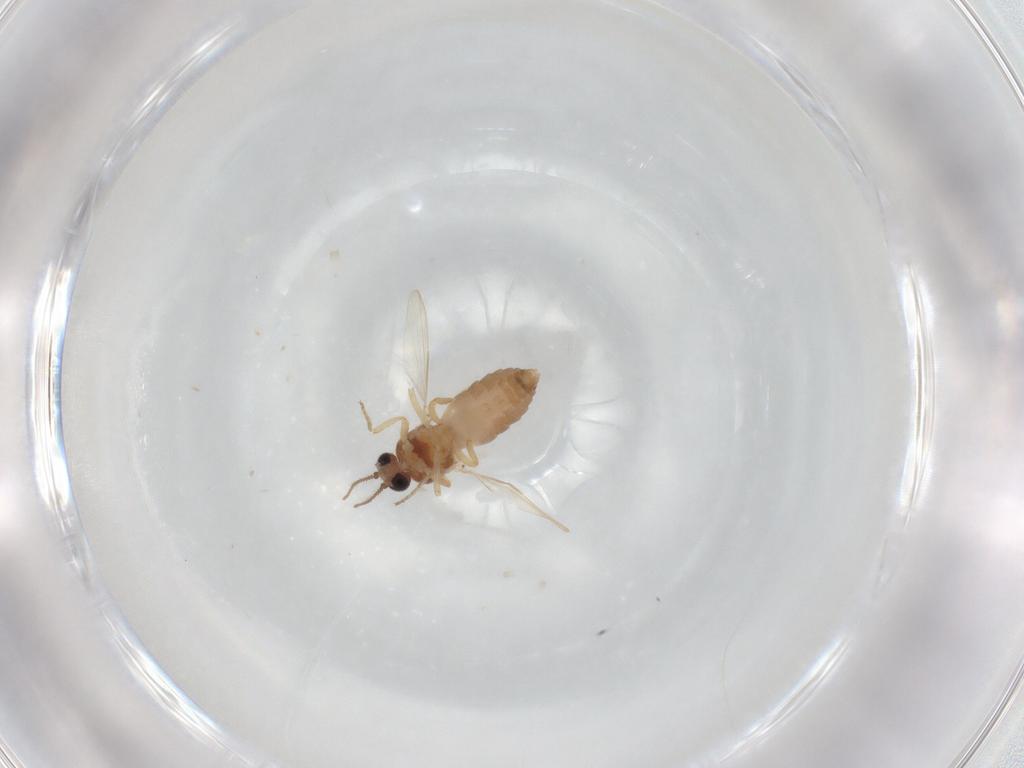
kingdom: Animalia
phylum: Arthropoda
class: Insecta
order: Diptera
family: Ceratopogonidae
